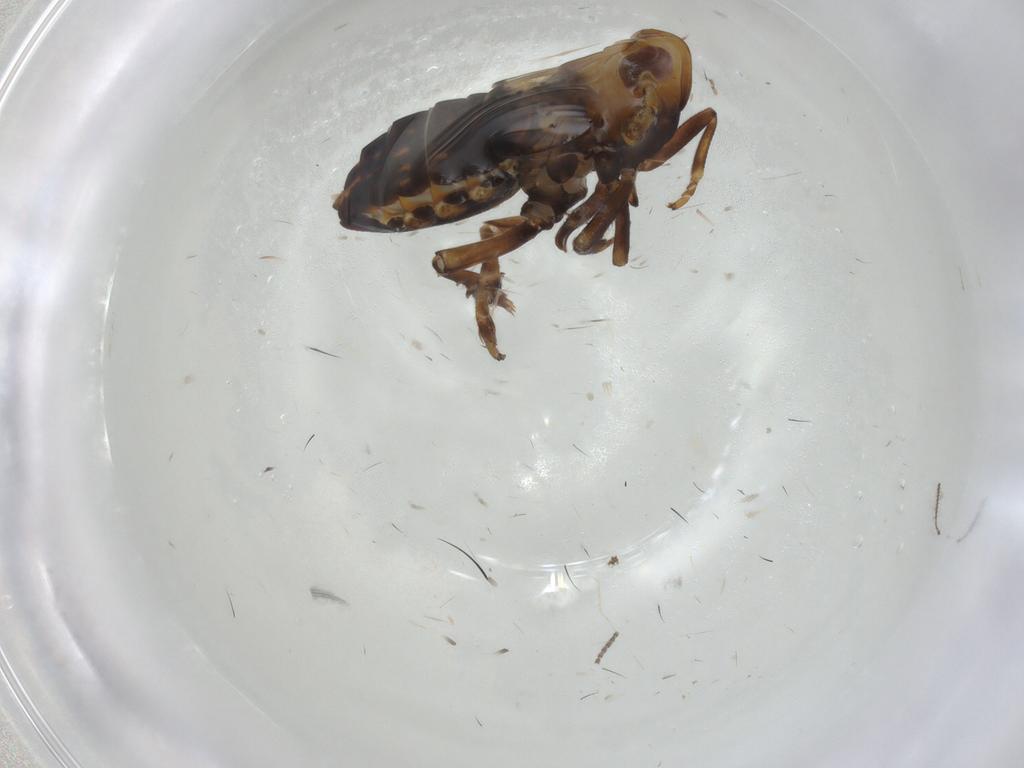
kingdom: Animalia
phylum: Arthropoda
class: Insecta
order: Hemiptera
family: Delphacidae
